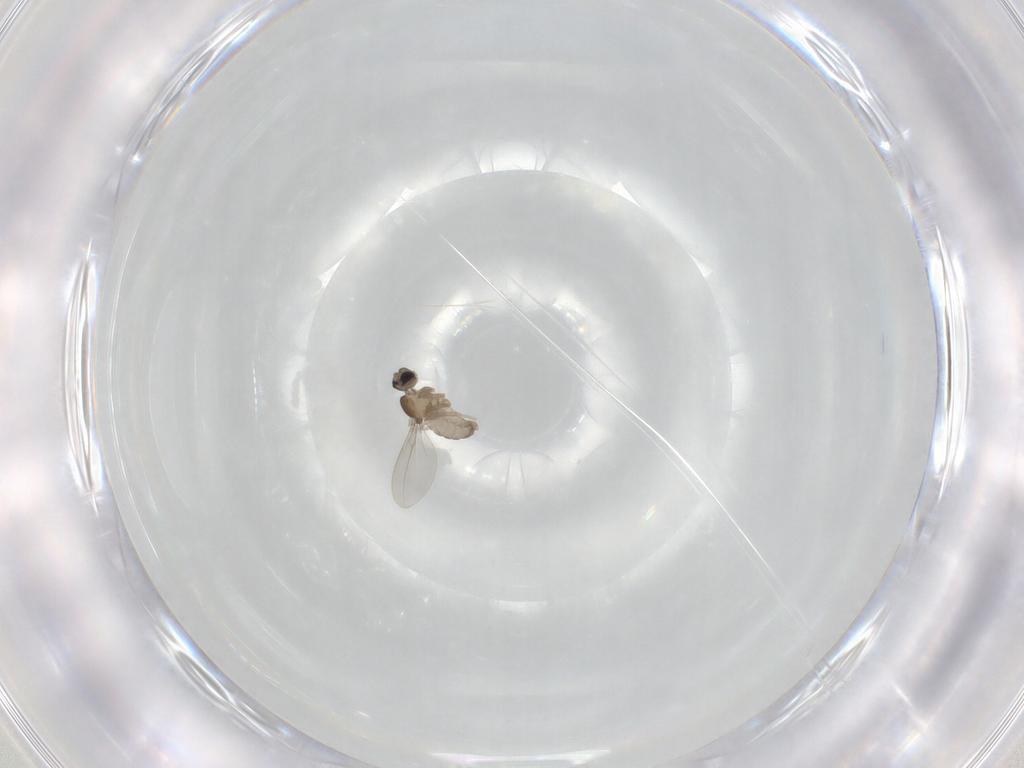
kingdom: Animalia
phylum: Arthropoda
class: Insecta
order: Diptera
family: Cecidomyiidae
